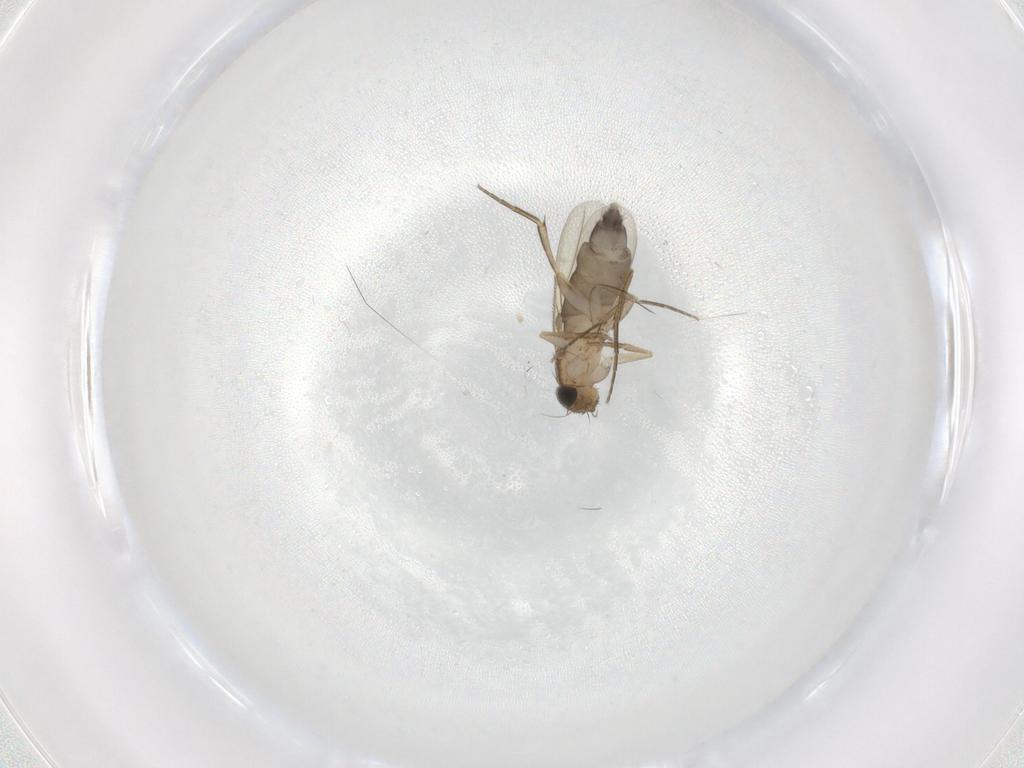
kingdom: Animalia
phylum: Arthropoda
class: Insecta
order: Diptera
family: Phoridae
